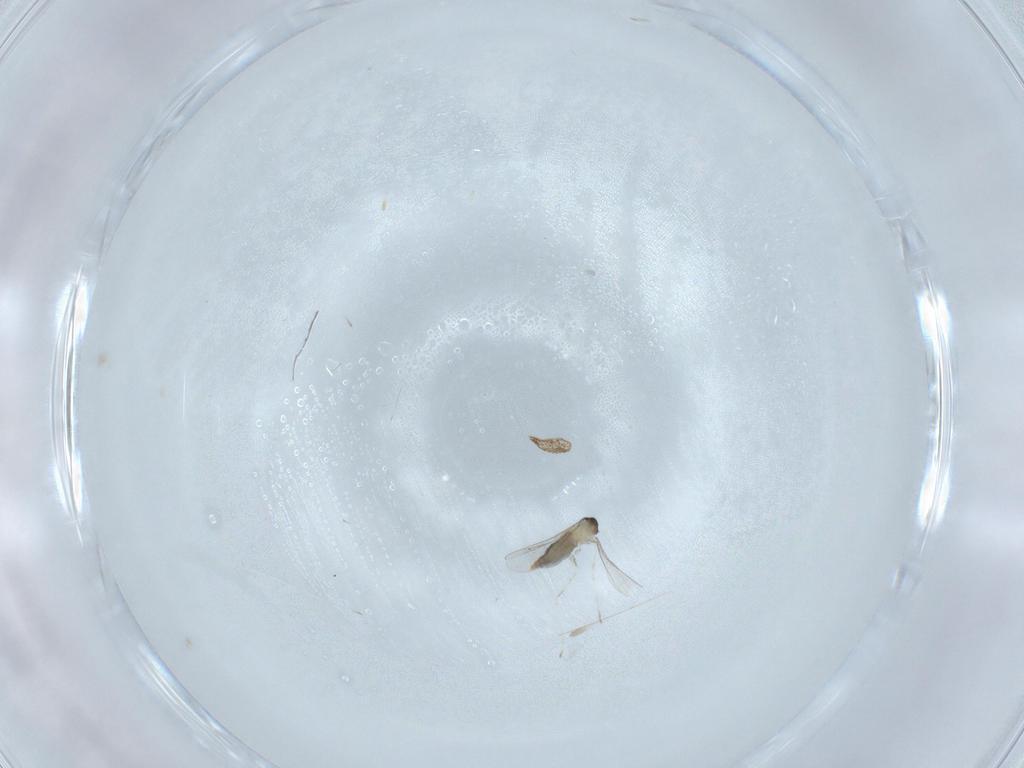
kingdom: Animalia
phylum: Arthropoda
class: Insecta
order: Diptera
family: Cecidomyiidae
